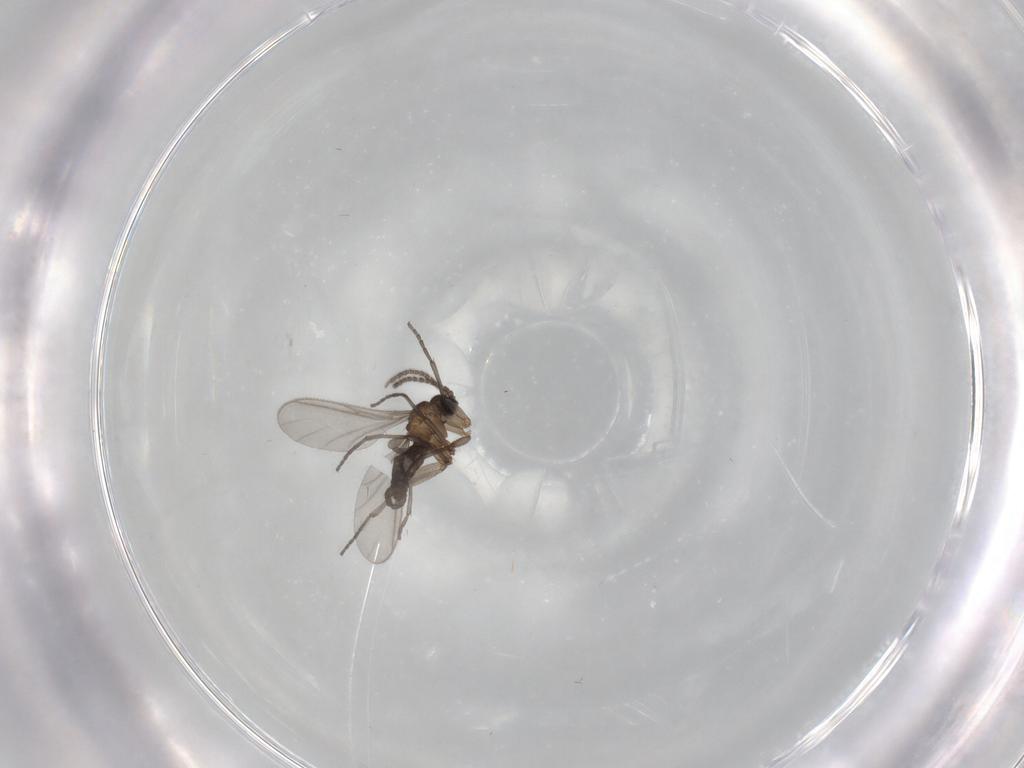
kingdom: Animalia
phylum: Arthropoda
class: Insecta
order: Diptera
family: Sciaridae
